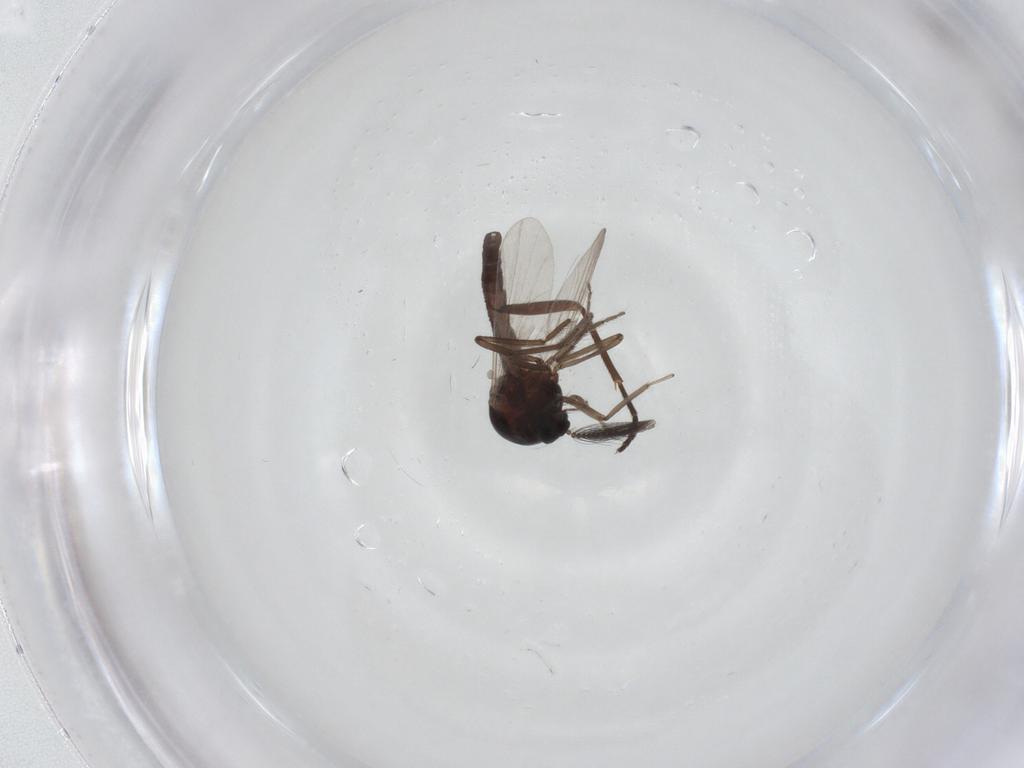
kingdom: Animalia
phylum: Arthropoda
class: Insecta
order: Diptera
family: Ceratopogonidae
